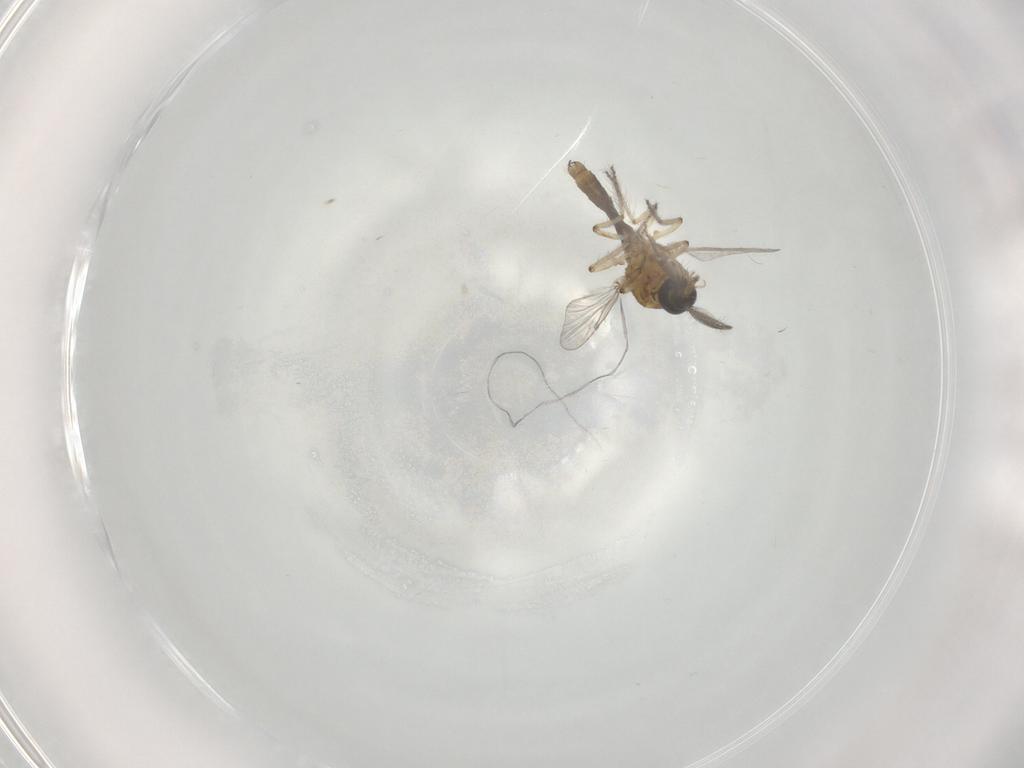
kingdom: Animalia
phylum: Arthropoda
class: Insecta
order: Diptera
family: Ceratopogonidae
